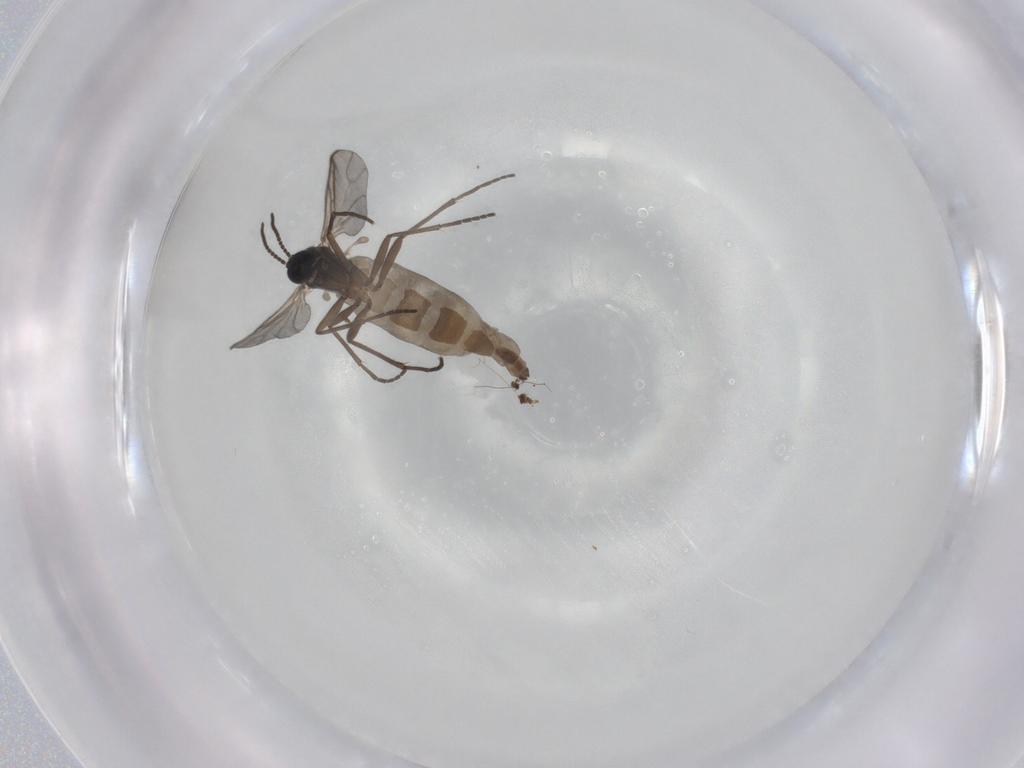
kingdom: Animalia
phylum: Arthropoda
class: Insecta
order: Diptera
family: Sciaridae
